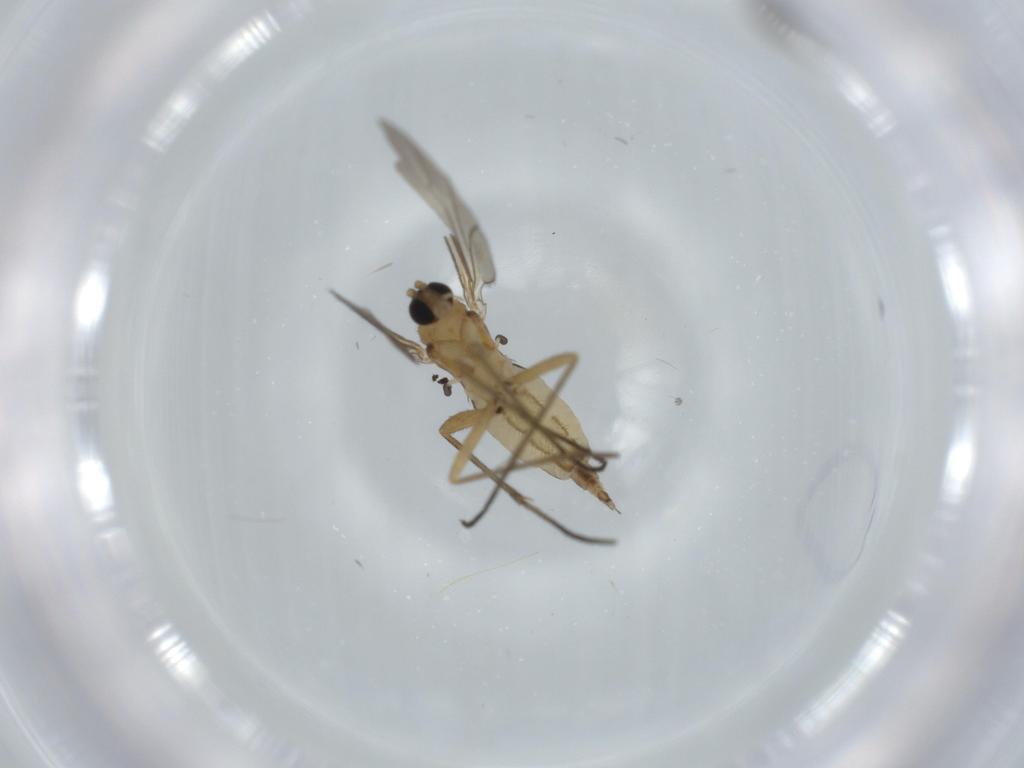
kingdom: Animalia
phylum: Arthropoda
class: Insecta
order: Diptera
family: Sciaridae
